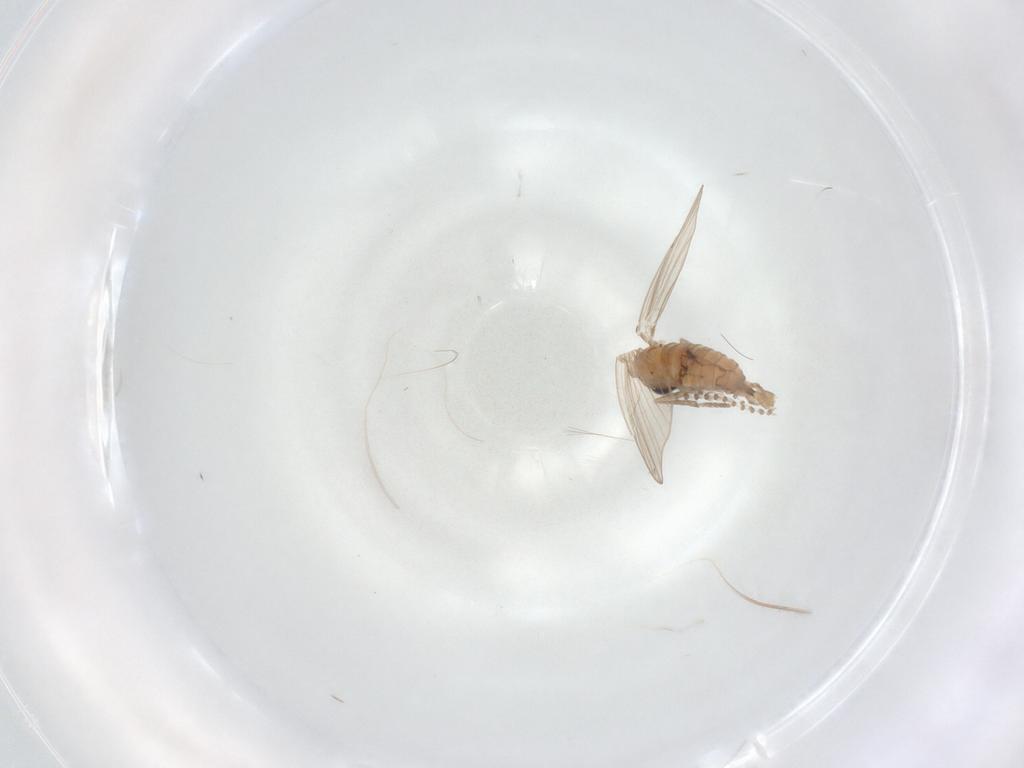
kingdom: Animalia
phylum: Arthropoda
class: Insecta
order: Diptera
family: Psychodidae
